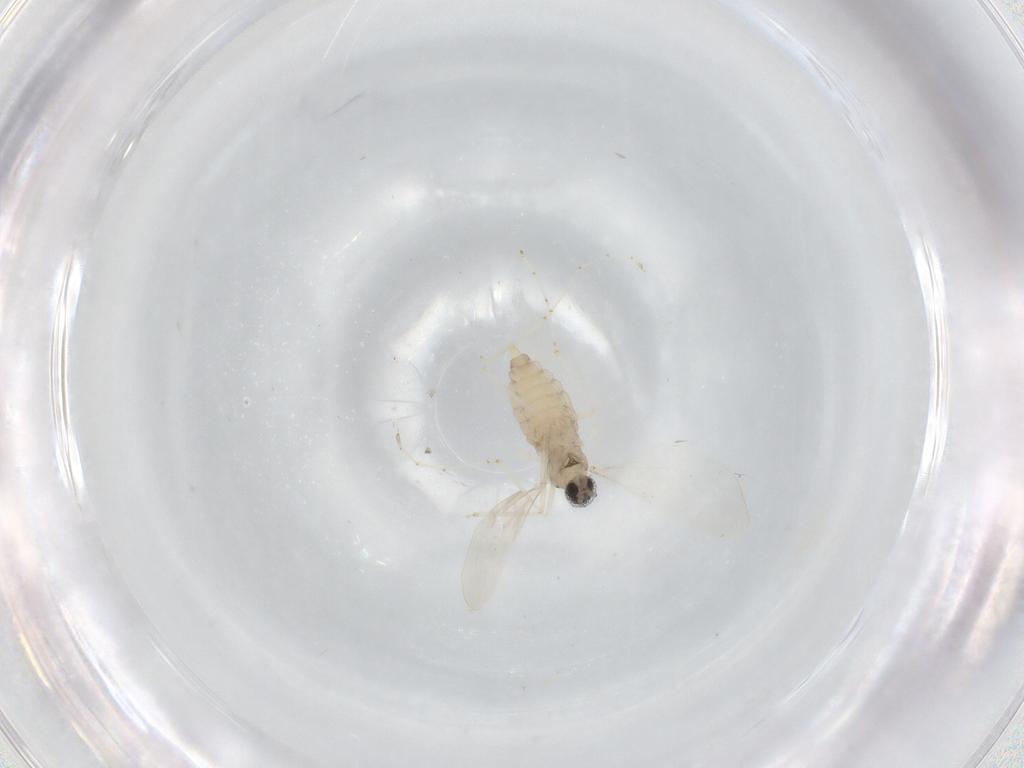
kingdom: Animalia
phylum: Arthropoda
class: Insecta
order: Diptera
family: Cecidomyiidae
